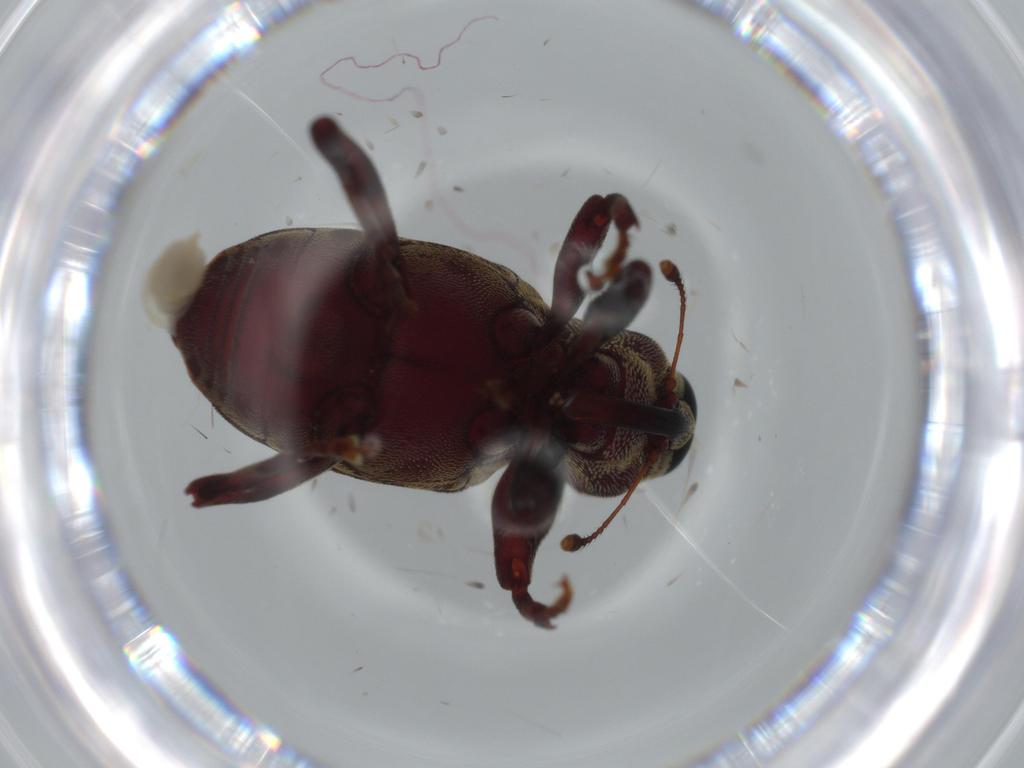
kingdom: Animalia
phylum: Arthropoda
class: Insecta
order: Coleoptera
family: Curculionidae
